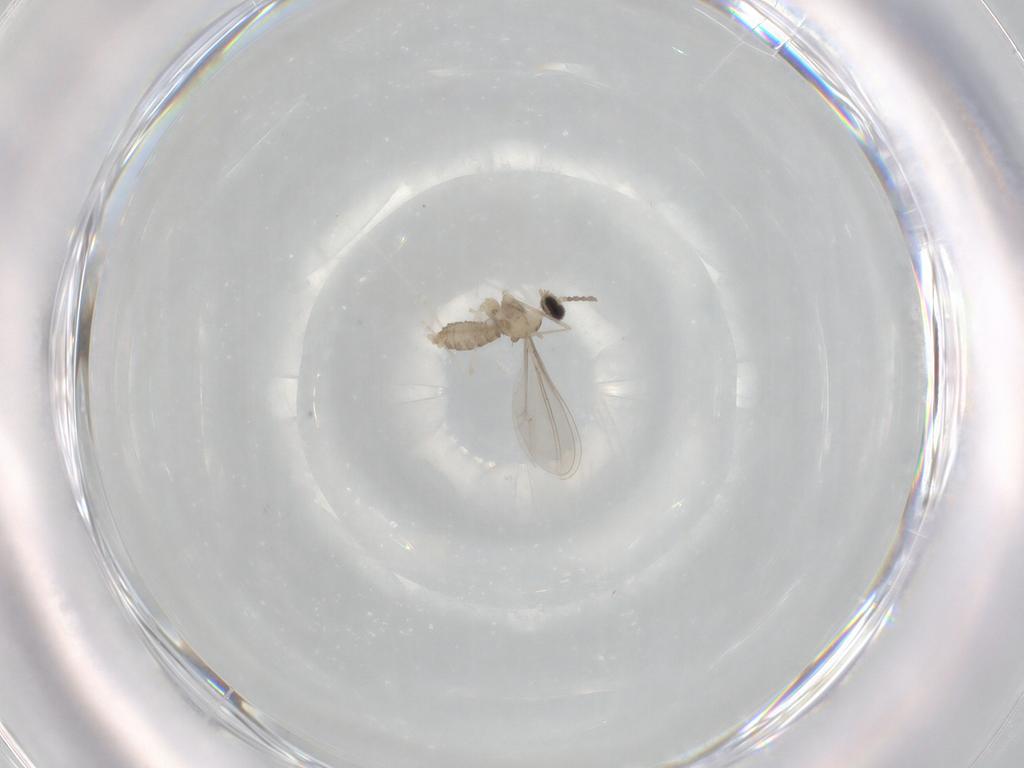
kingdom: Animalia
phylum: Arthropoda
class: Insecta
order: Diptera
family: Cecidomyiidae
